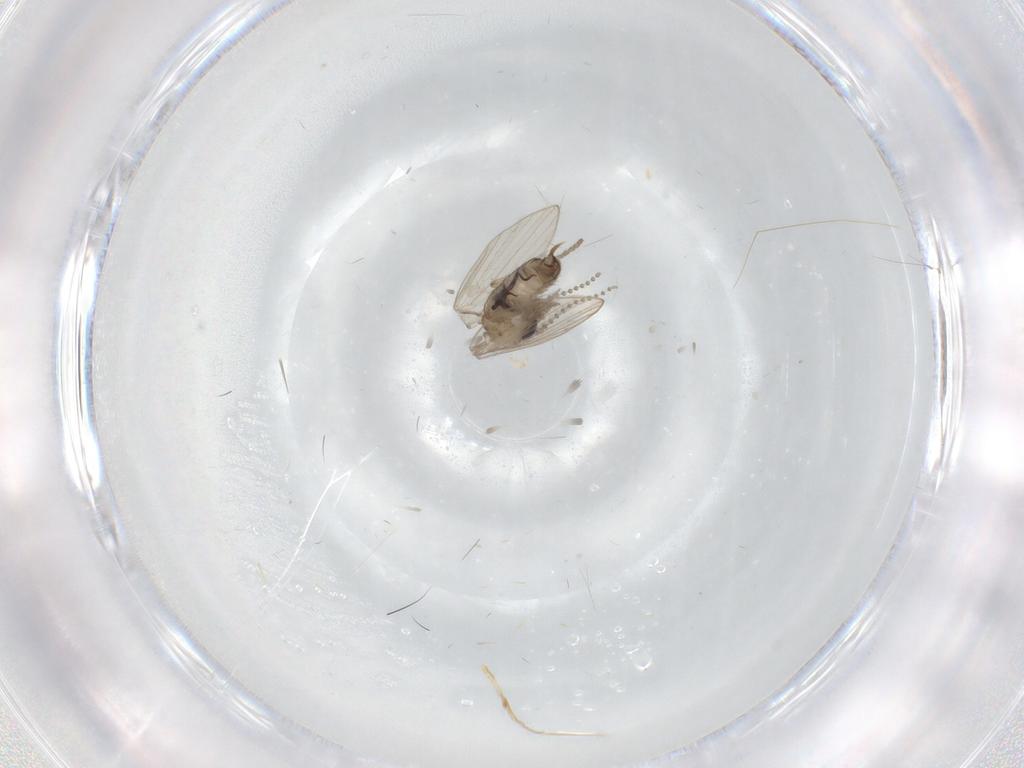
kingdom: Animalia
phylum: Arthropoda
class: Insecta
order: Diptera
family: Psychodidae
